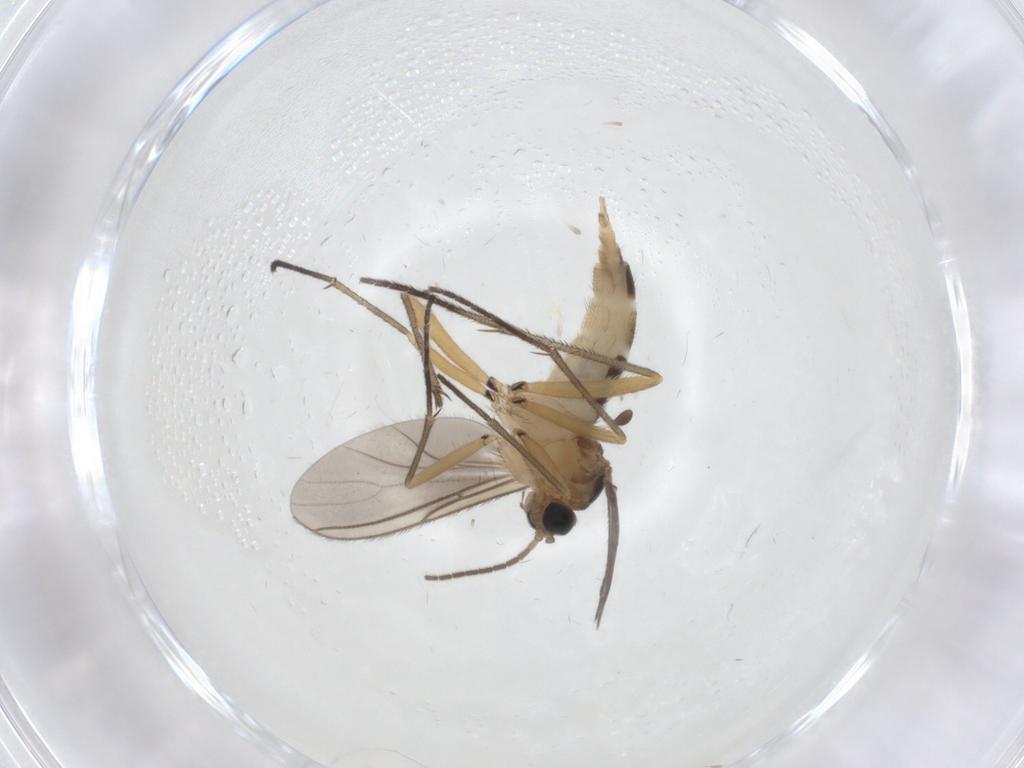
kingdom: Animalia
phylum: Arthropoda
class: Insecta
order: Diptera
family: Sciaridae
